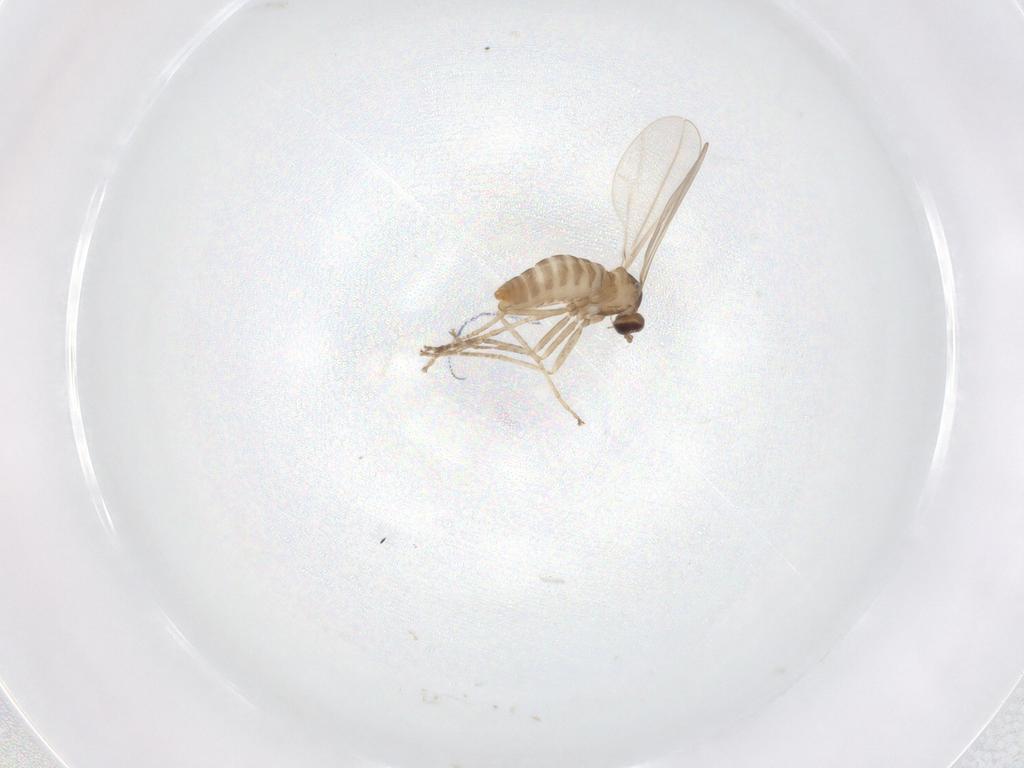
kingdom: Animalia
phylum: Arthropoda
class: Insecta
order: Diptera
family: Cecidomyiidae
